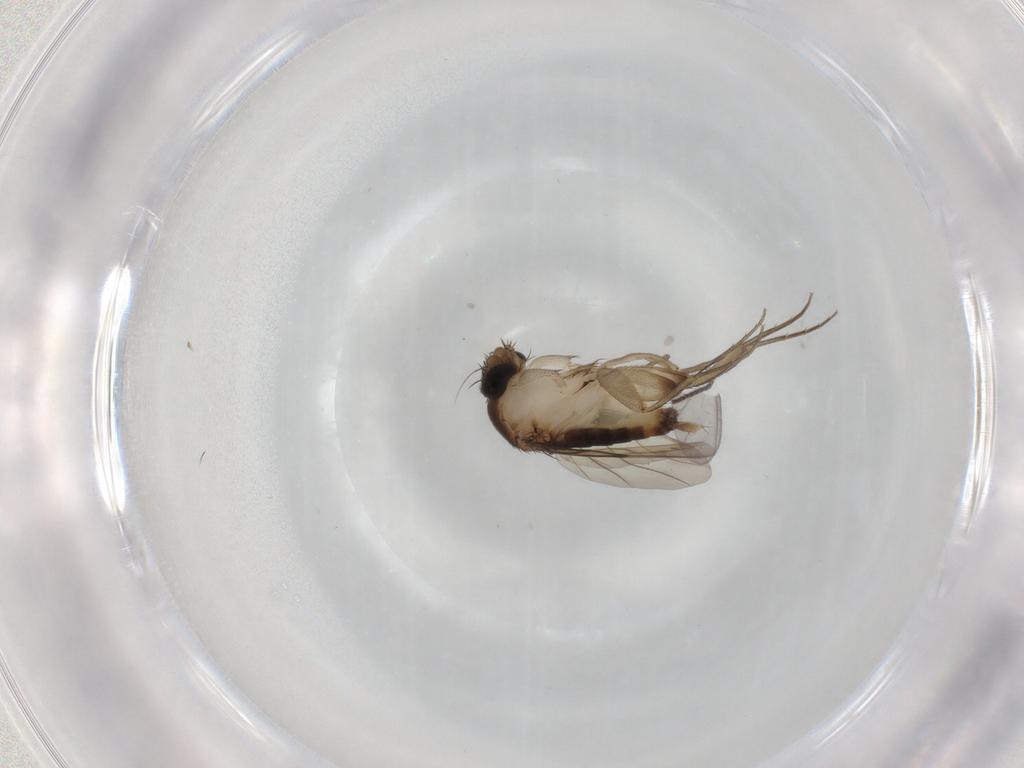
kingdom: Animalia
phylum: Arthropoda
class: Insecta
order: Diptera
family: Phoridae
